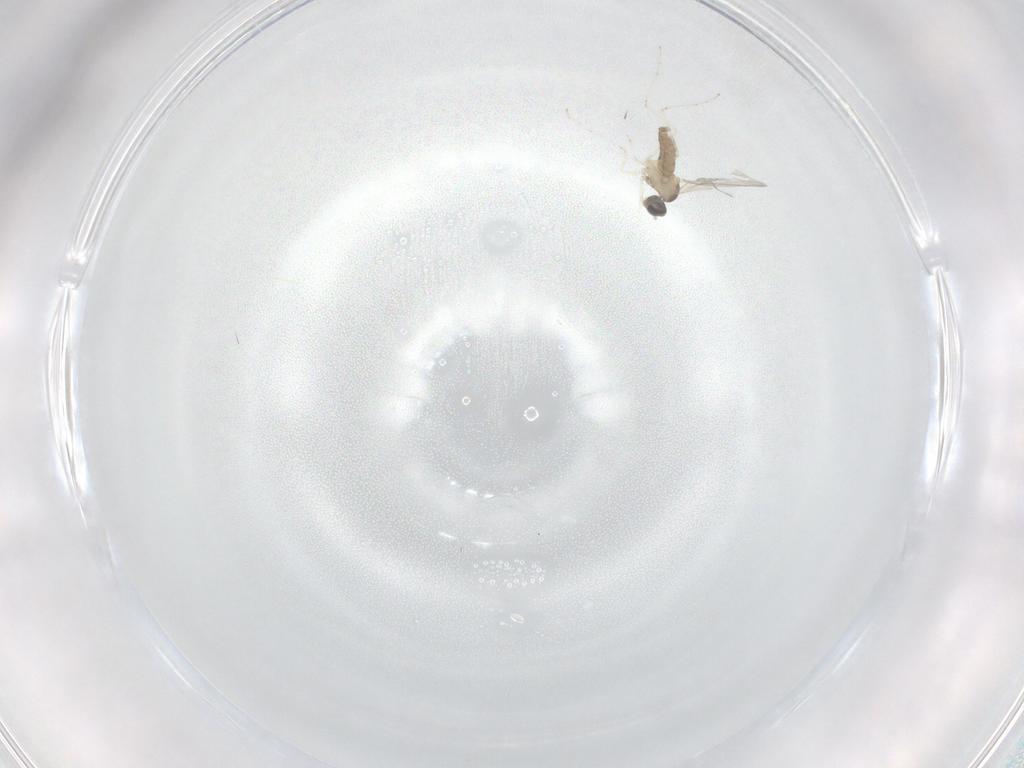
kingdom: Animalia
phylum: Arthropoda
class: Insecta
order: Diptera
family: Cecidomyiidae
